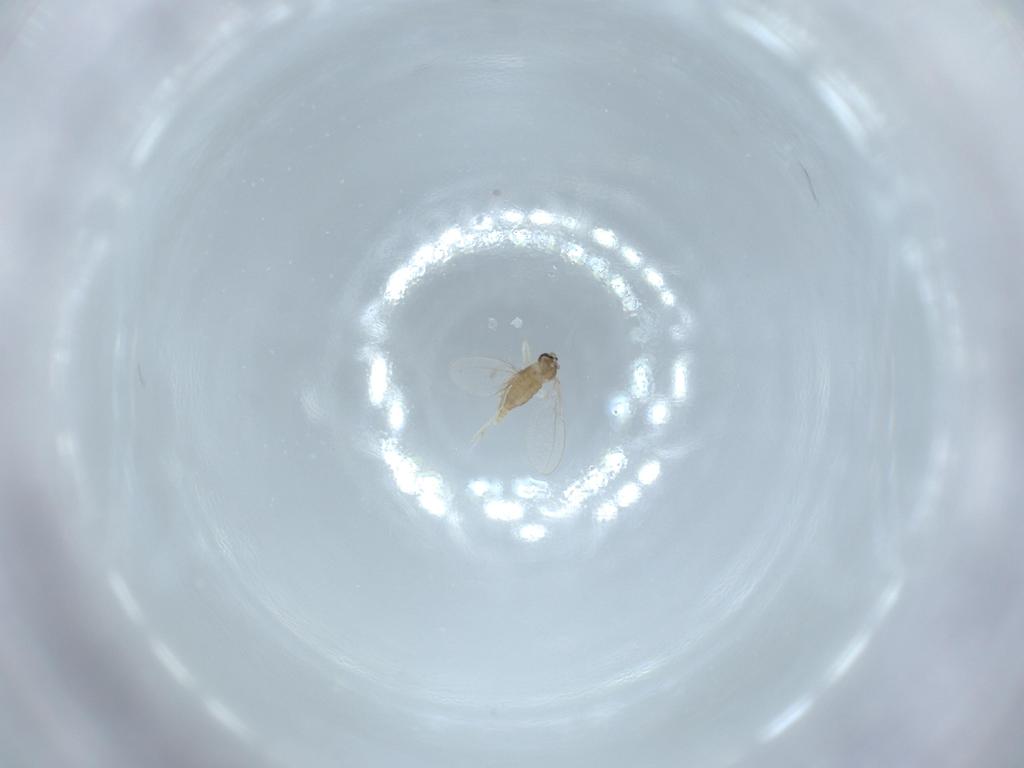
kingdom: Animalia
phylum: Arthropoda
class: Insecta
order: Diptera
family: Cecidomyiidae
